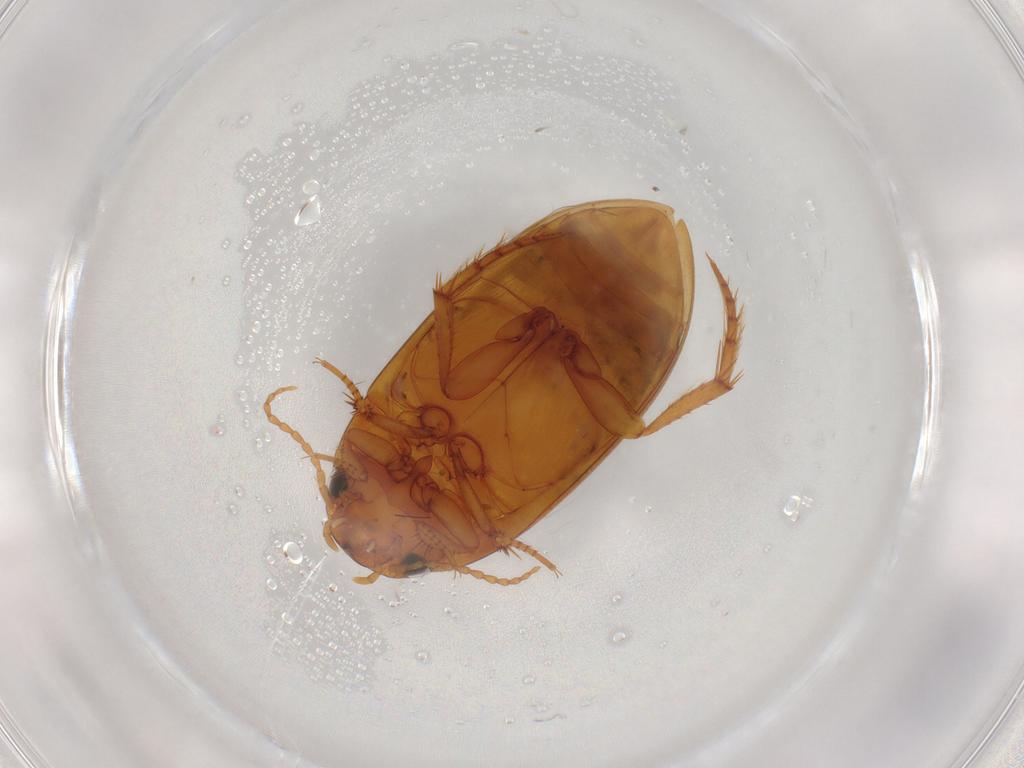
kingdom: Animalia
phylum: Arthropoda
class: Insecta
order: Coleoptera
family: Dytiscidae
